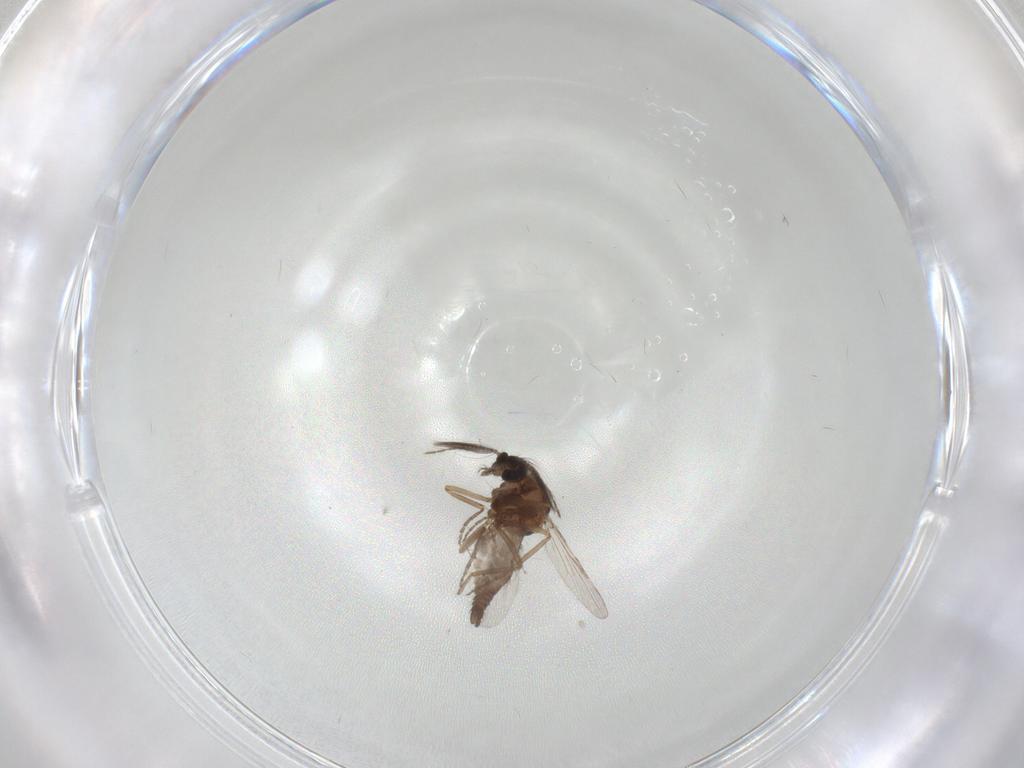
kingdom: Animalia
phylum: Arthropoda
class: Insecta
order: Diptera
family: Ceratopogonidae
